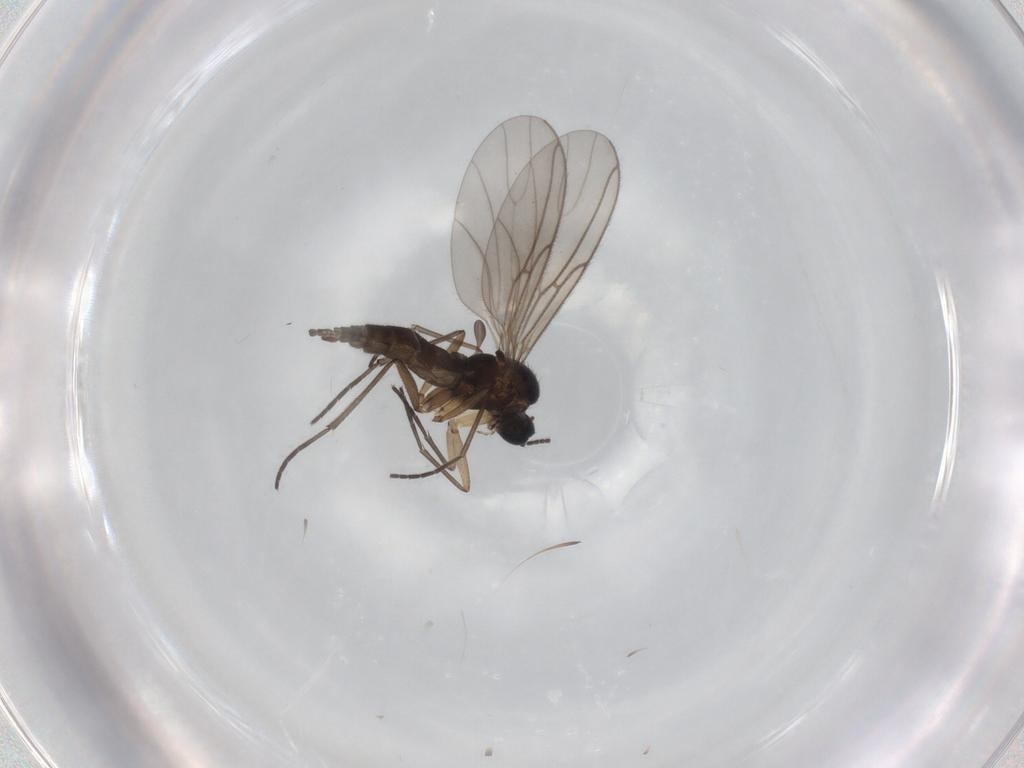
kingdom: Animalia
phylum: Arthropoda
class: Insecta
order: Diptera
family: Sciaridae
